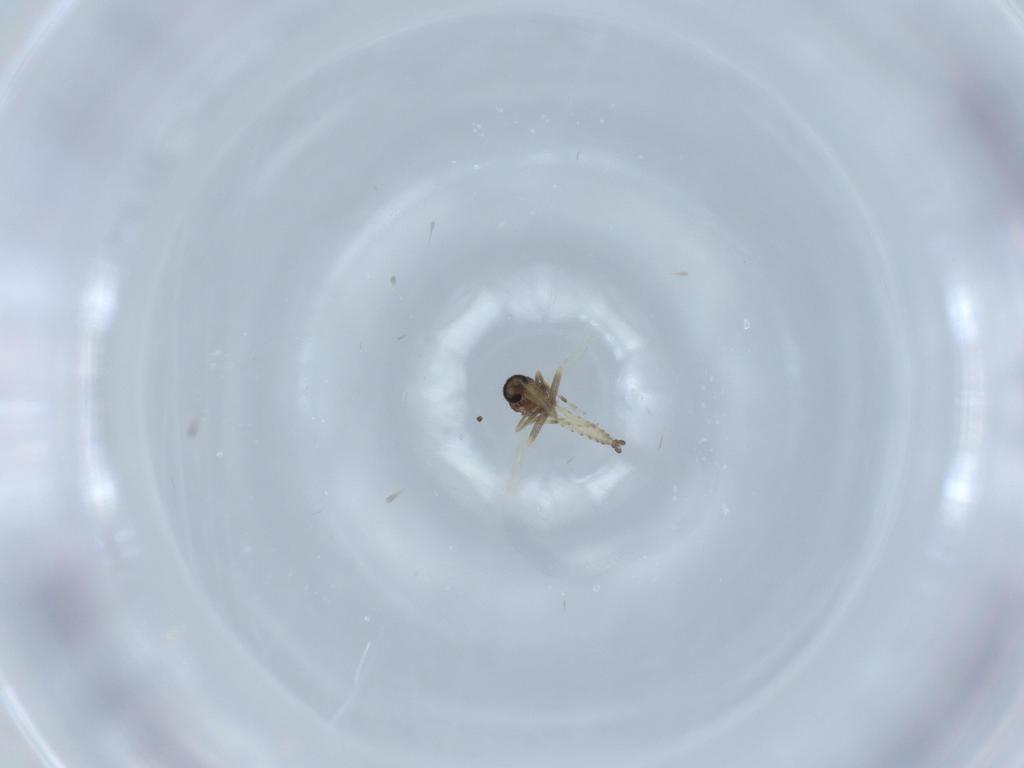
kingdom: Animalia
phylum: Arthropoda
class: Insecta
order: Diptera
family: Ceratopogonidae
